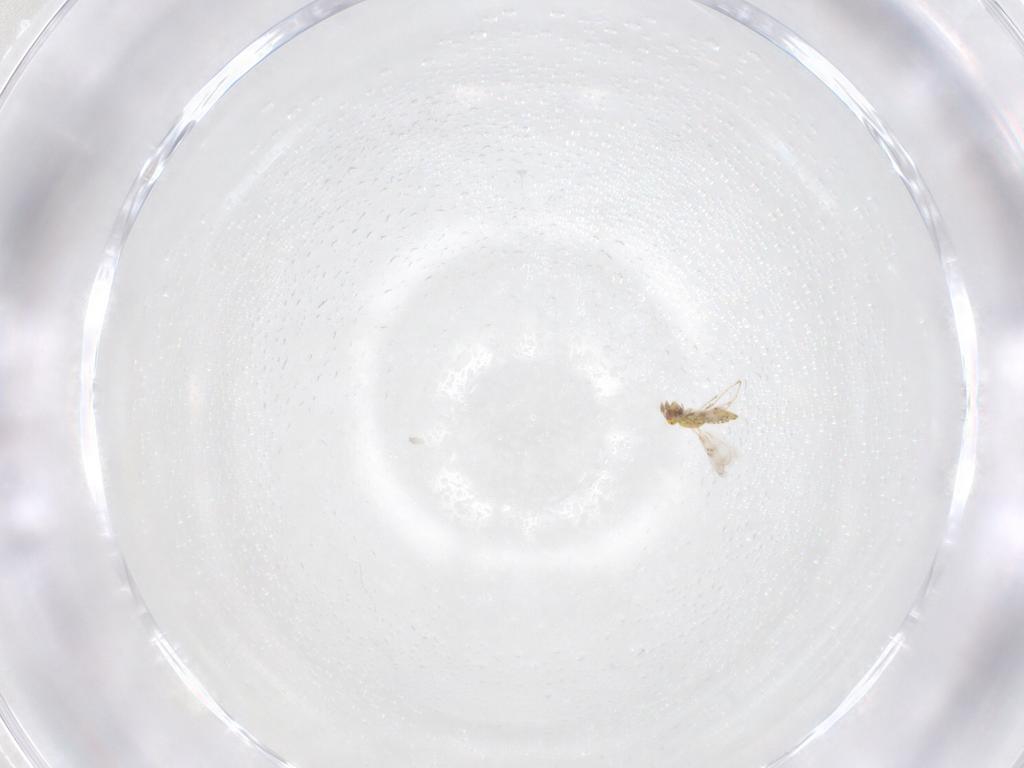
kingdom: Animalia
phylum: Arthropoda
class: Insecta
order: Hymenoptera
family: Eulophidae
